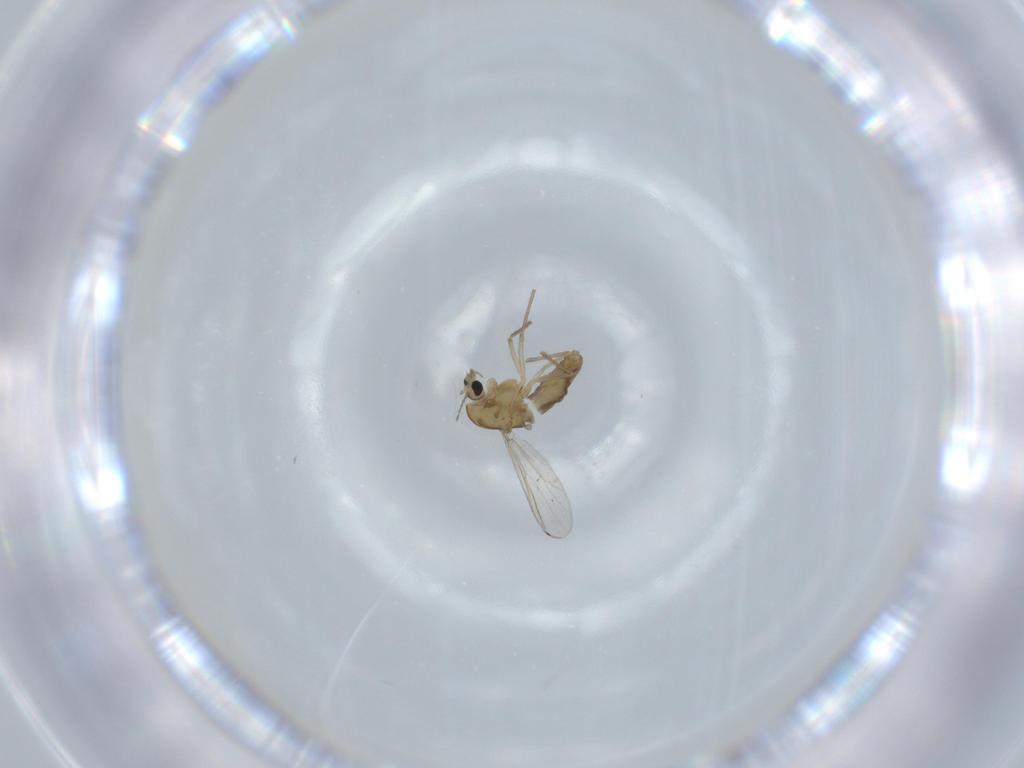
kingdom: Animalia
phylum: Arthropoda
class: Insecta
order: Diptera
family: Chironomidae
